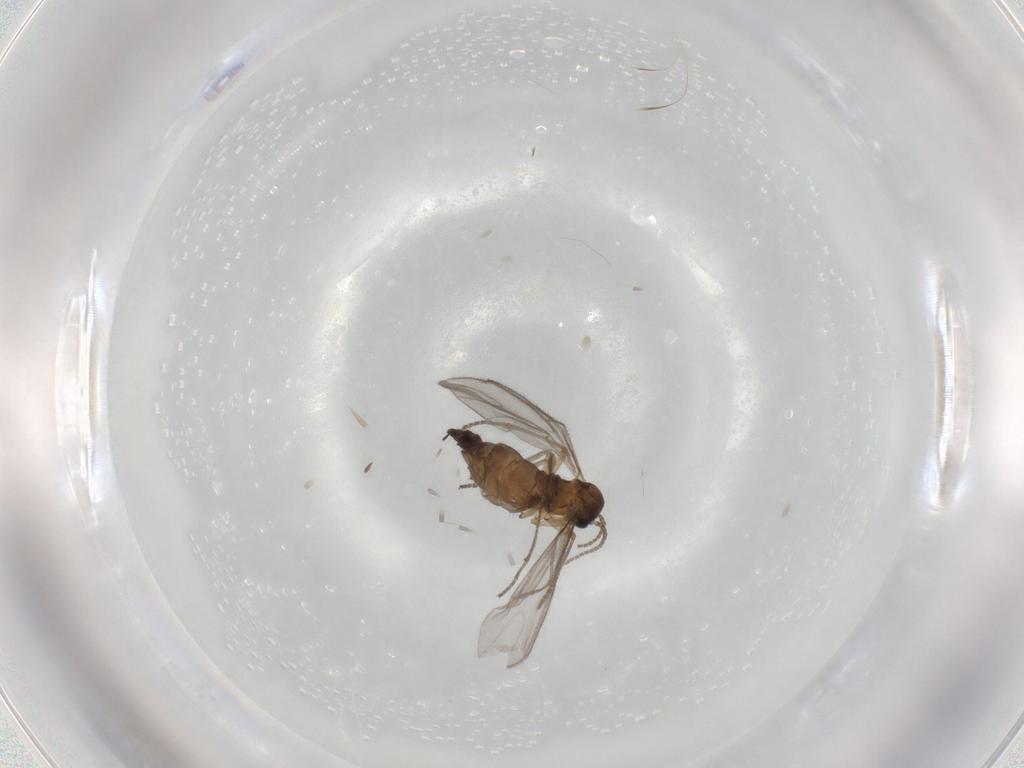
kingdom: Animalia
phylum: Arthropoda
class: Insecta
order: Diptera
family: Sciaridae
